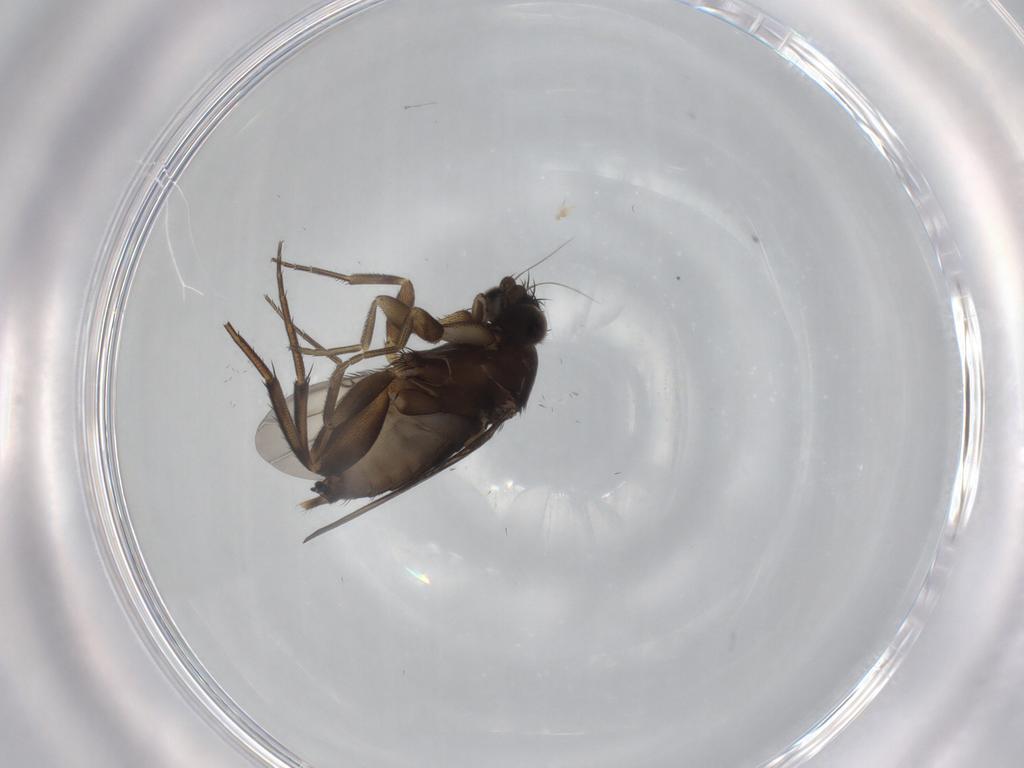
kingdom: Animalia
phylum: Arthropoda
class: Insecta
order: Diptera
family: Phoridae
